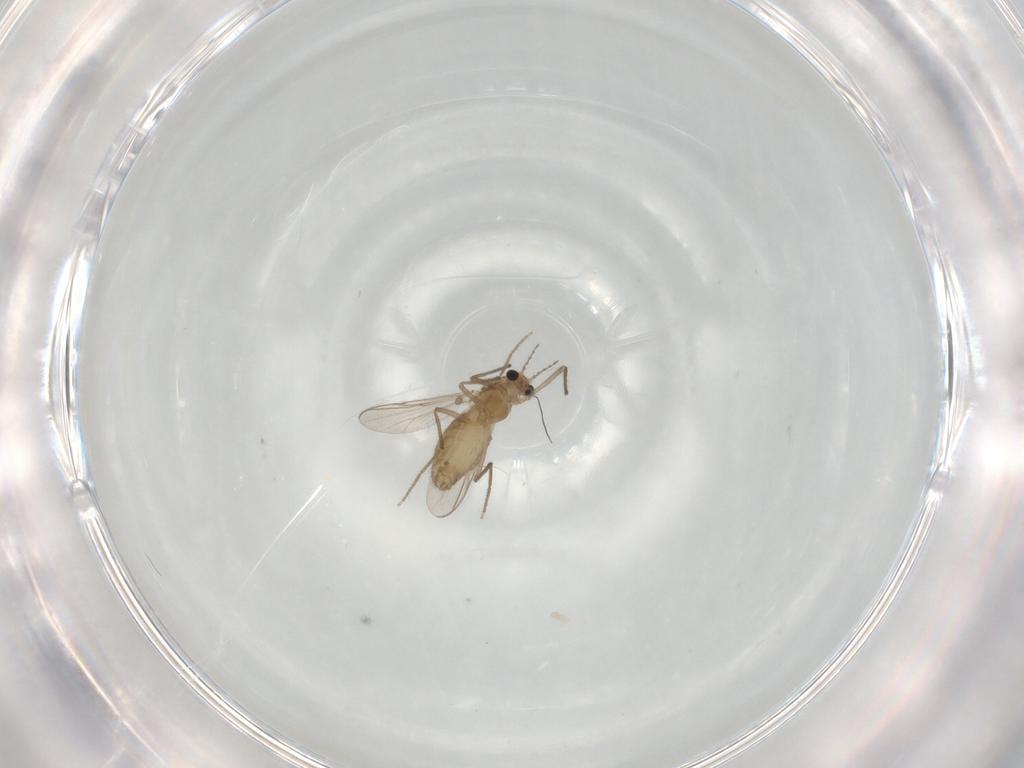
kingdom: Animalia
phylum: Arthropoda
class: Insecta
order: Diptera
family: Chironomidae
